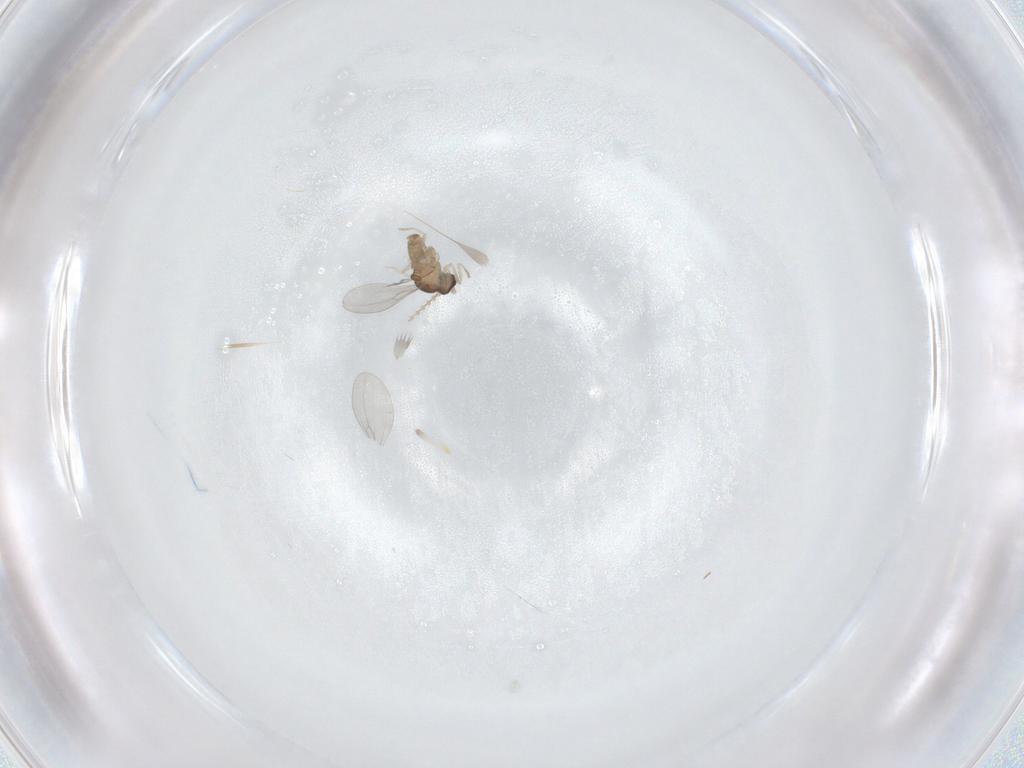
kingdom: Animalia
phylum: Arthropoda
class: Insecta
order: Diptera
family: Cecidomyiidae
